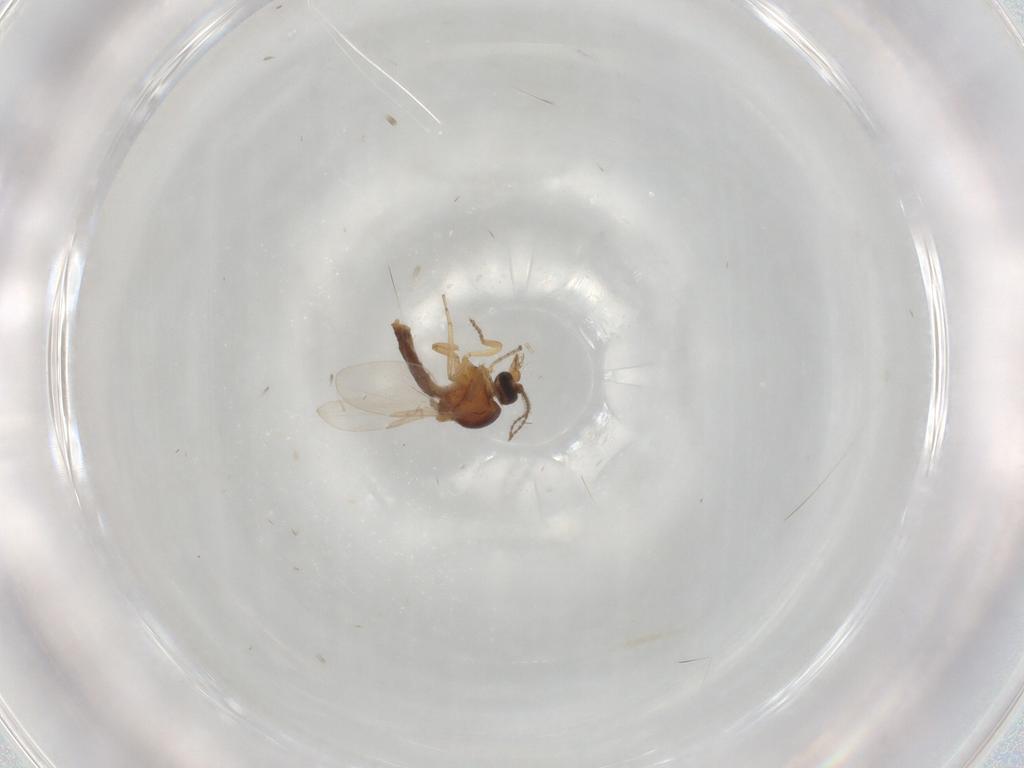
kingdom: Animalia
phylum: Arthropoda
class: Insecta
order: Diptera
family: Ceratopogonidae
